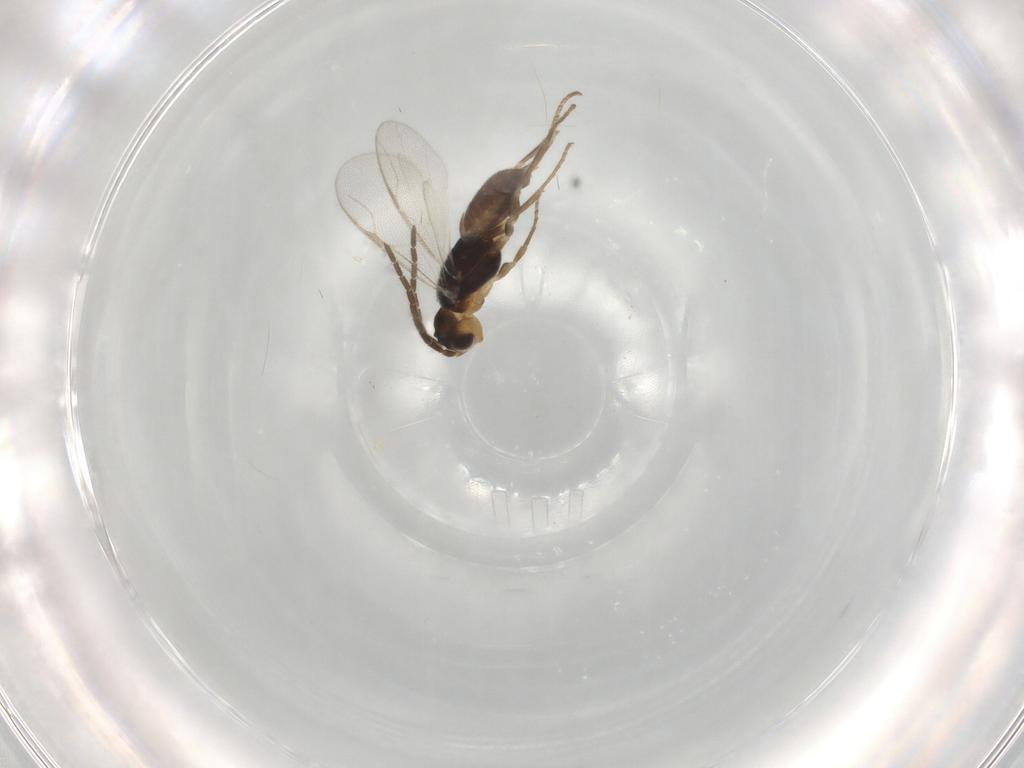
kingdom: Animalia
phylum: Arthropoda
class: Insecta
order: Hymenoptera
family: Dryinidae
